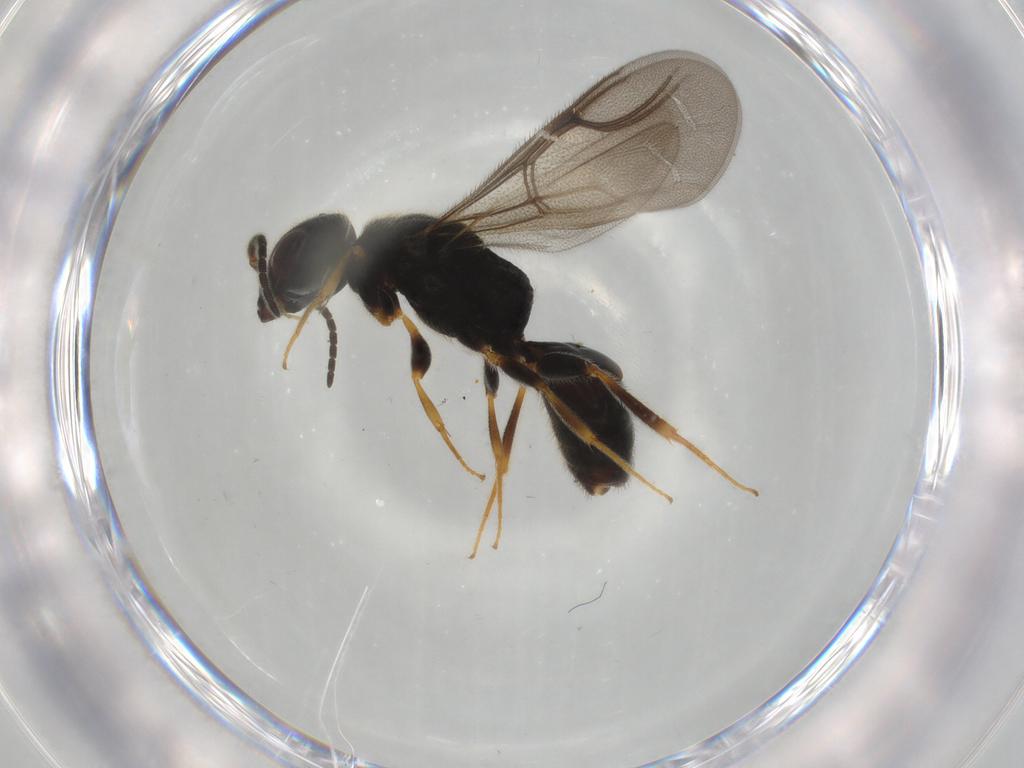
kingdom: Animalia
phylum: Arthropoda
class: Insecta
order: Hymenoptera
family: Bethylidae
